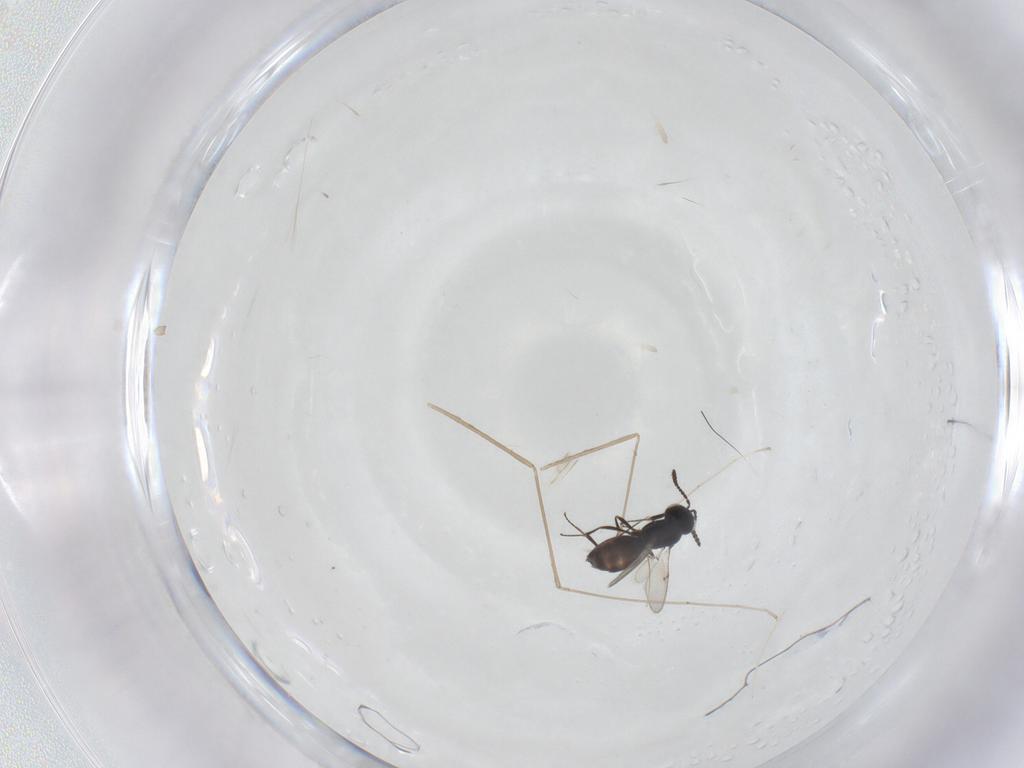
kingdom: Animalia
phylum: Arthropoda
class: Insecta
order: Hymenoptera
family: Scelionidae
